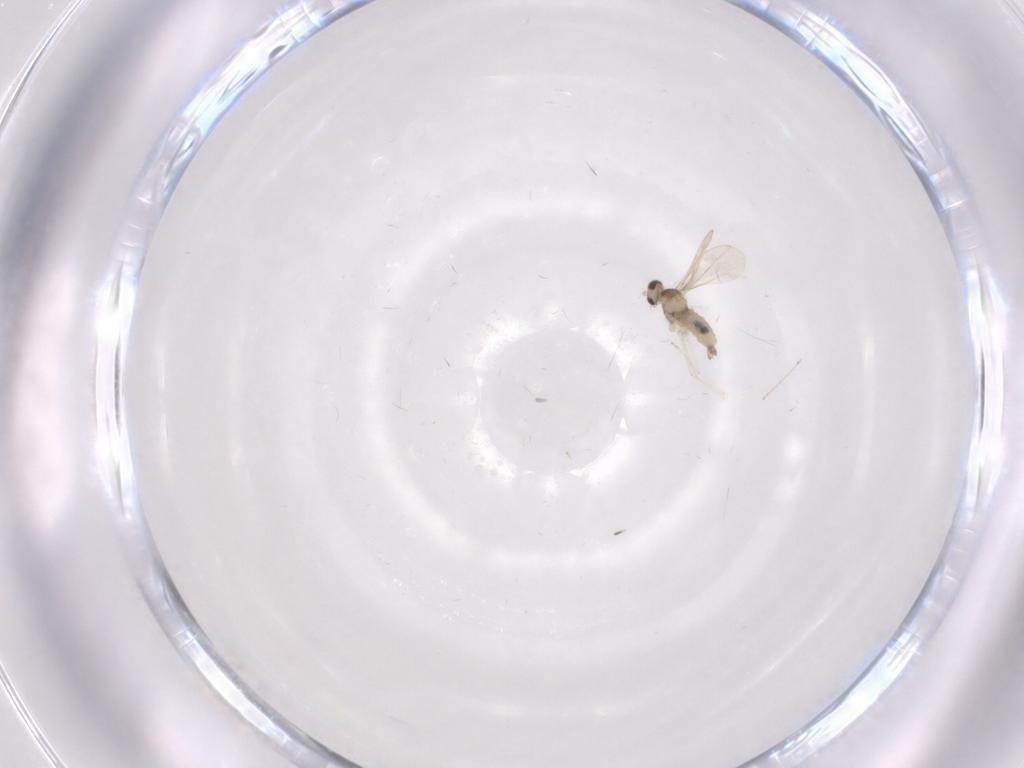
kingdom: Animalia
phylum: Arthropoda
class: Insecta
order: Diptera
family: Cecidomyiidae
